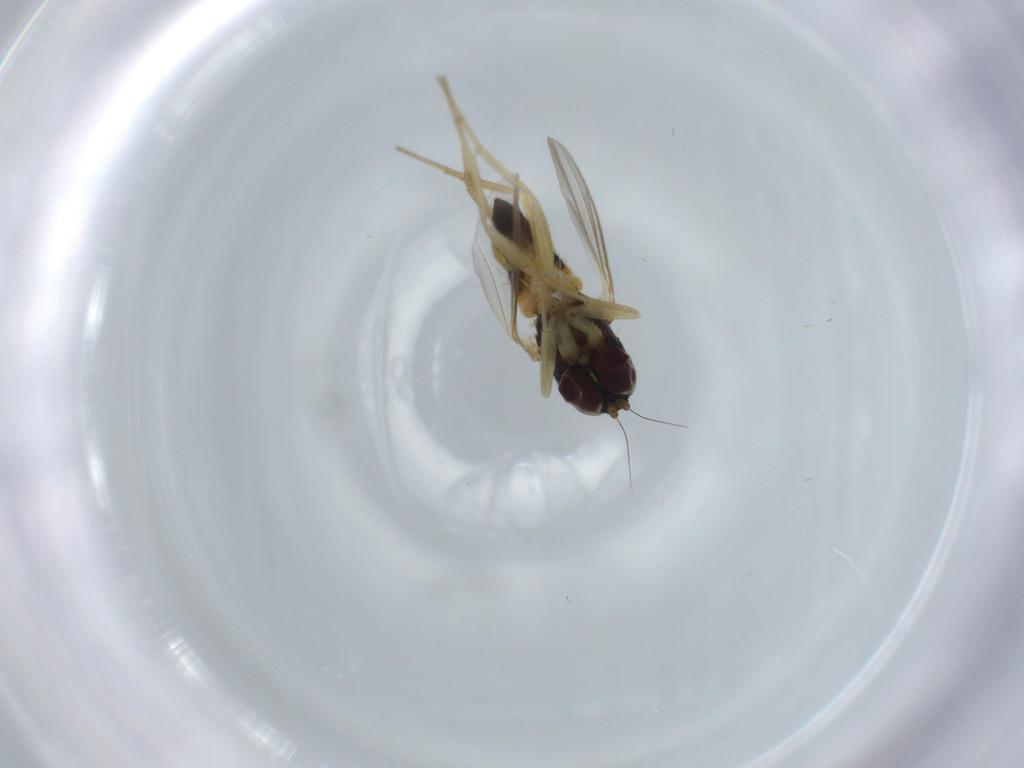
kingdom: Animalia
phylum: Arthropoda
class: Insecta
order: Diptera
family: Dolichopodidae
